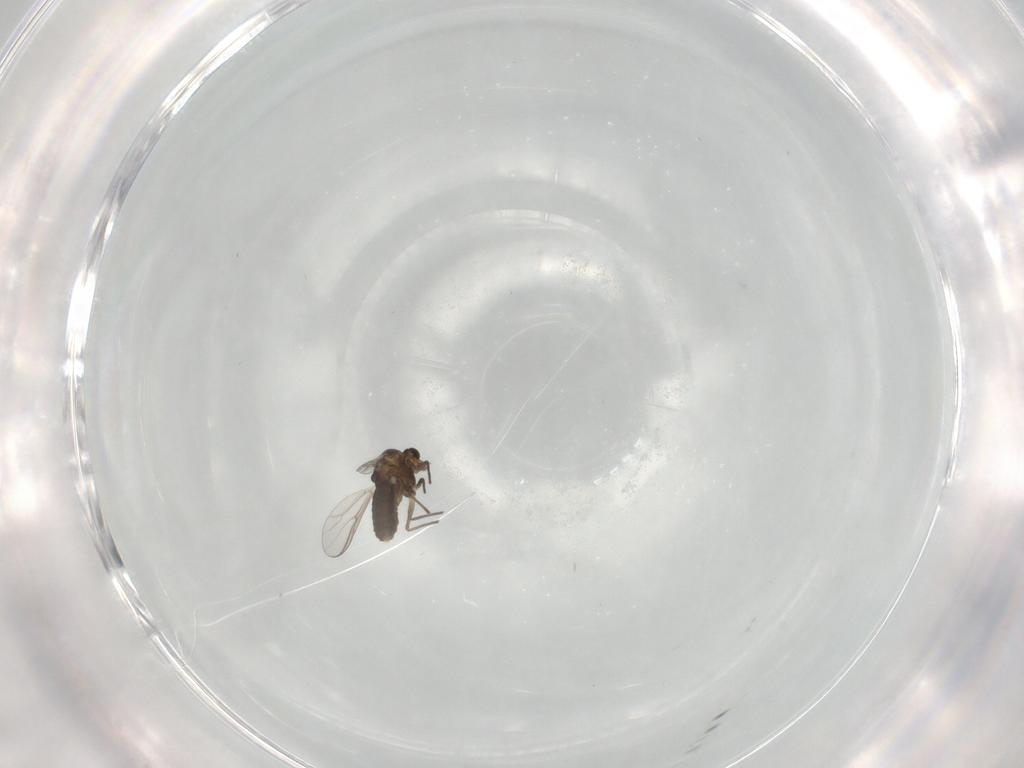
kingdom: Animalia
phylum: Arthropoda
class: Insecta
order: Diptera
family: Chironomidae
